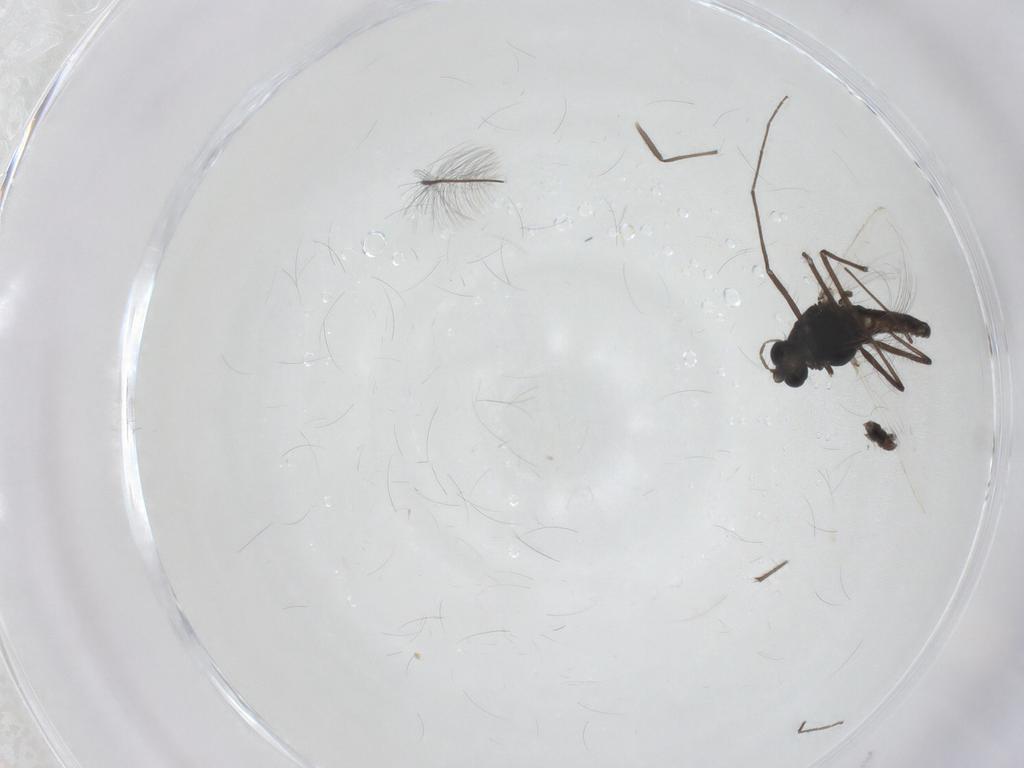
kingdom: Animalia
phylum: Arthropoda
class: Insecta
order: Diptera
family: Chironomidae
